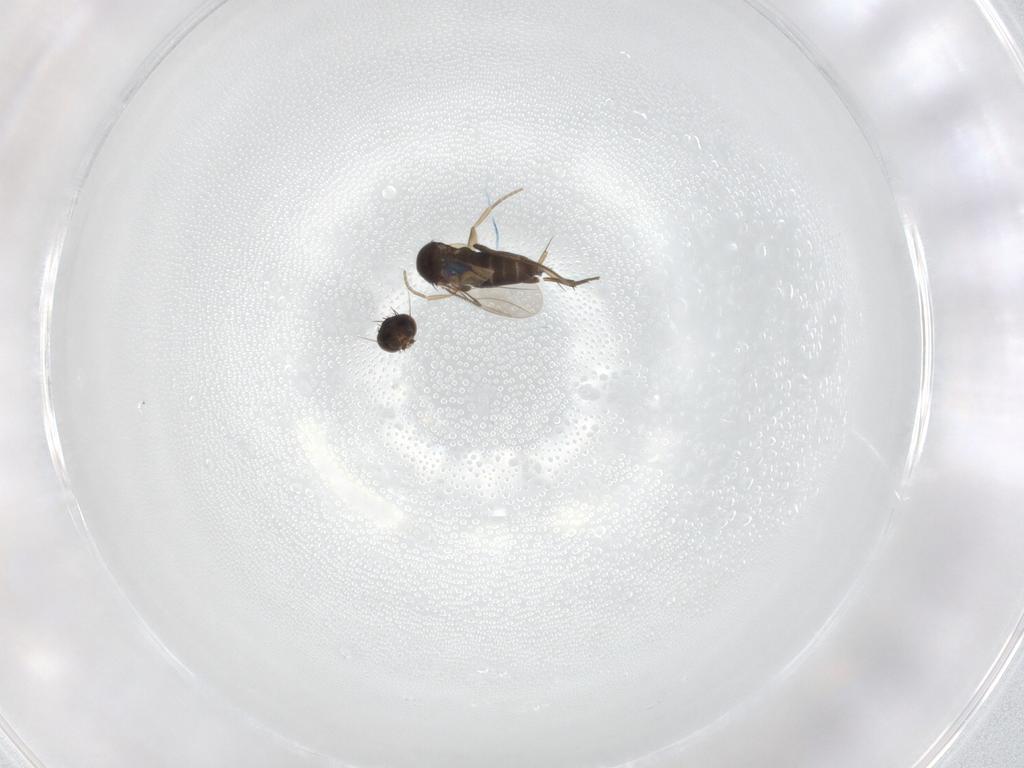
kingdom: Animalia
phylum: Arthropoda
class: Insecta
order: Diptera
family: Phoridae
